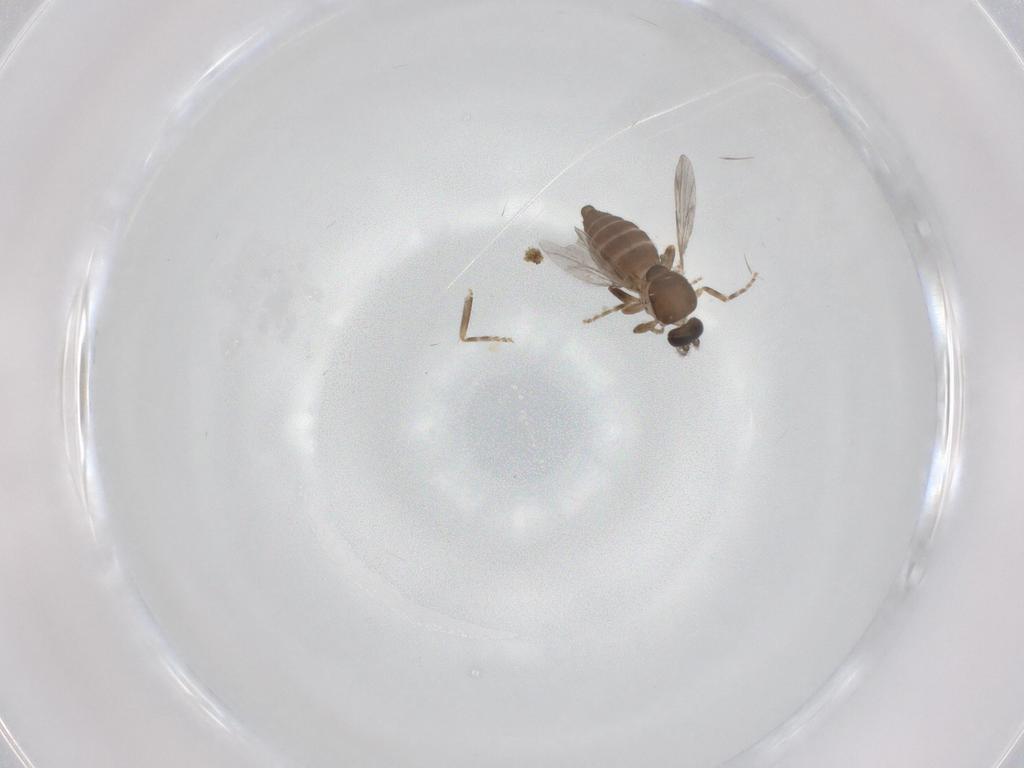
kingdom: Animalia
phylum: Arthropoda
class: Insecta
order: Diptera
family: Ceratopogonidae
